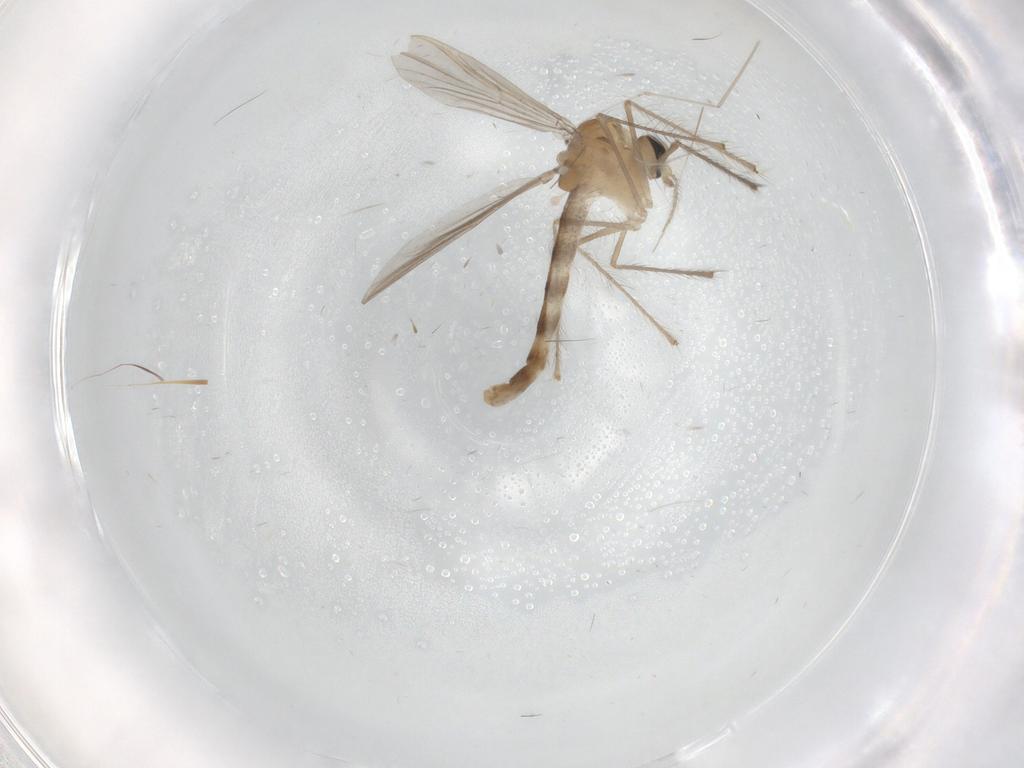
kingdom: Animalia
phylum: Arthropoda
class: Insecta
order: Diptera
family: Chironomidae
